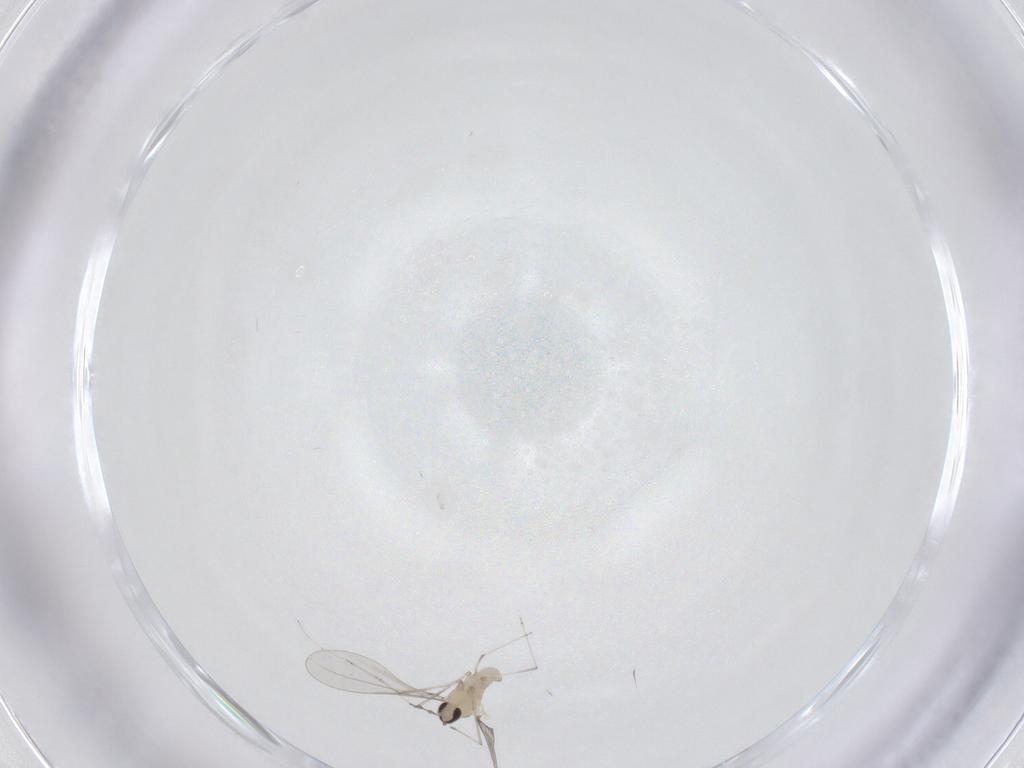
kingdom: Animalia
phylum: Arthropoda
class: Insecta
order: Diptera
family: Cecidomyiidae
